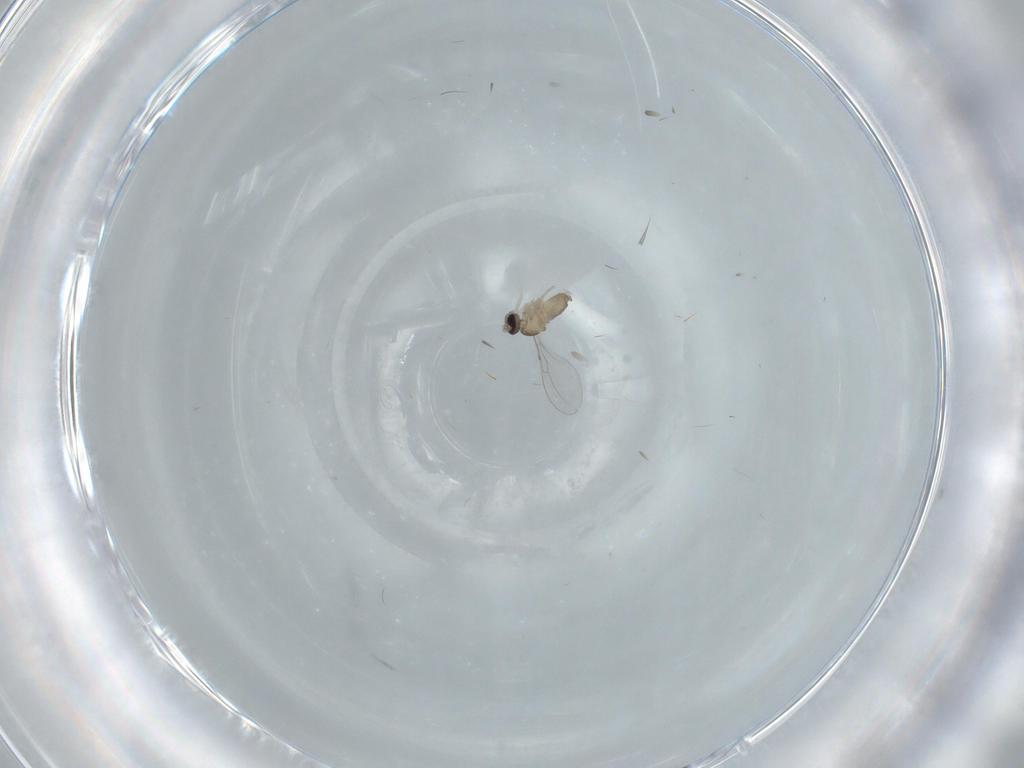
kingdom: Animalia
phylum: Arthropoda
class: Insecta
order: Diptera
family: Cecidomyiidae
